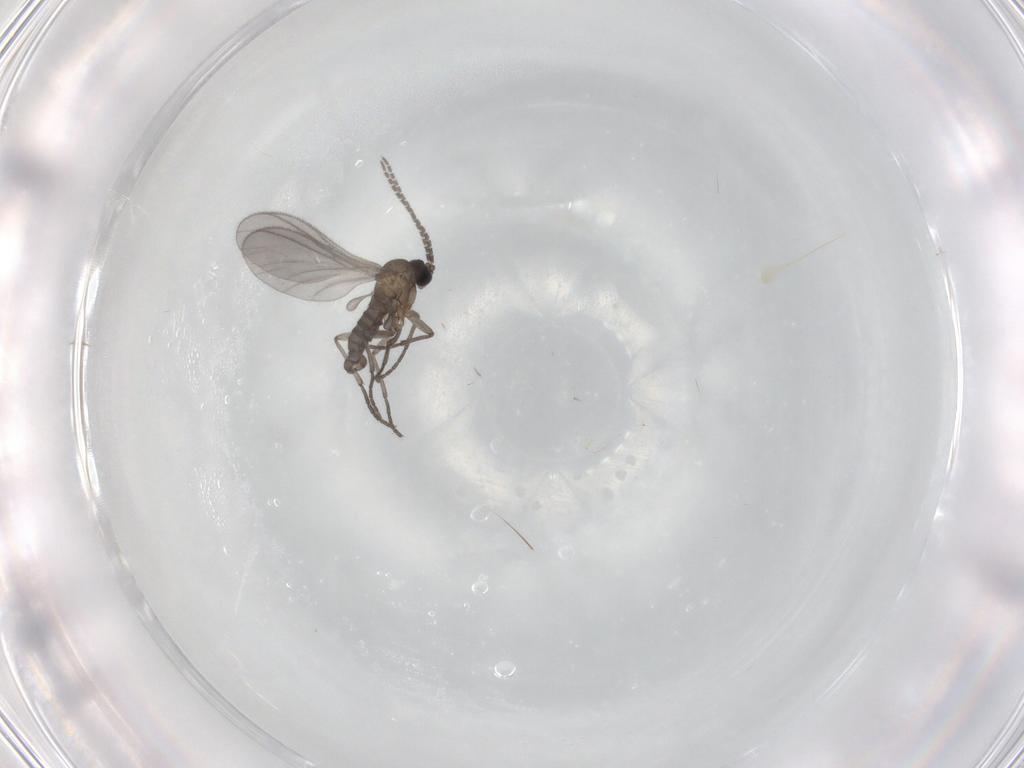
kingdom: Animalia
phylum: Arthropoda
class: Insecta
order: Diptera
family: Sciaridae
